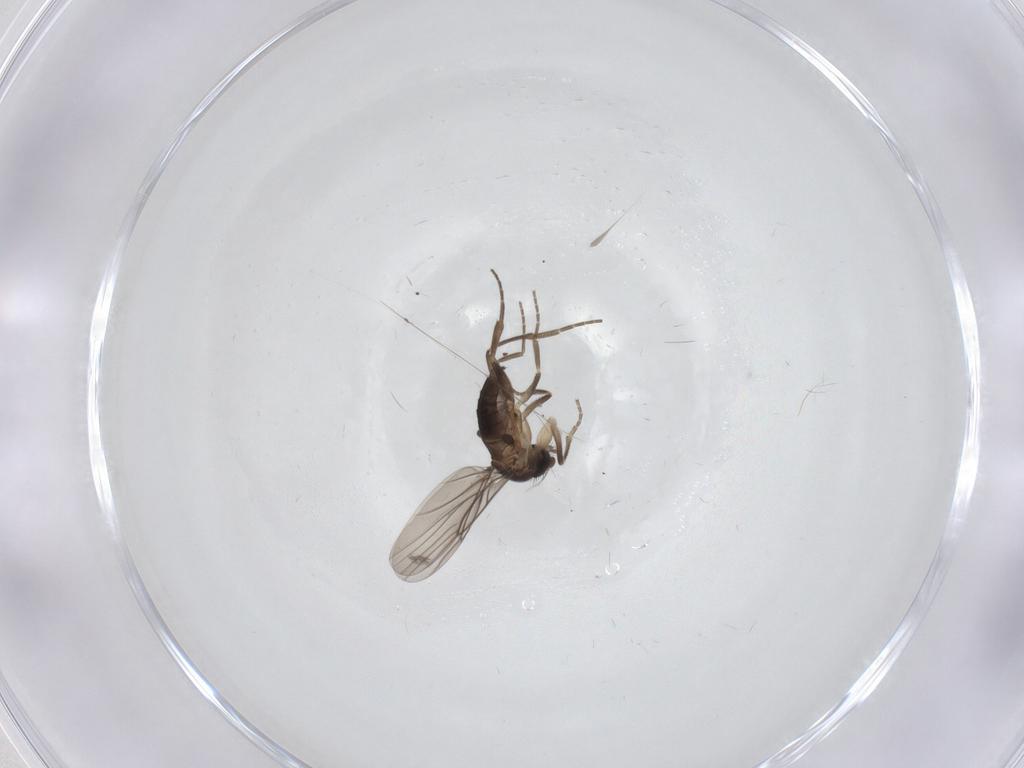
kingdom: Animalia
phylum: Arthropoda
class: Insecta
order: Diptera
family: Phoridae
